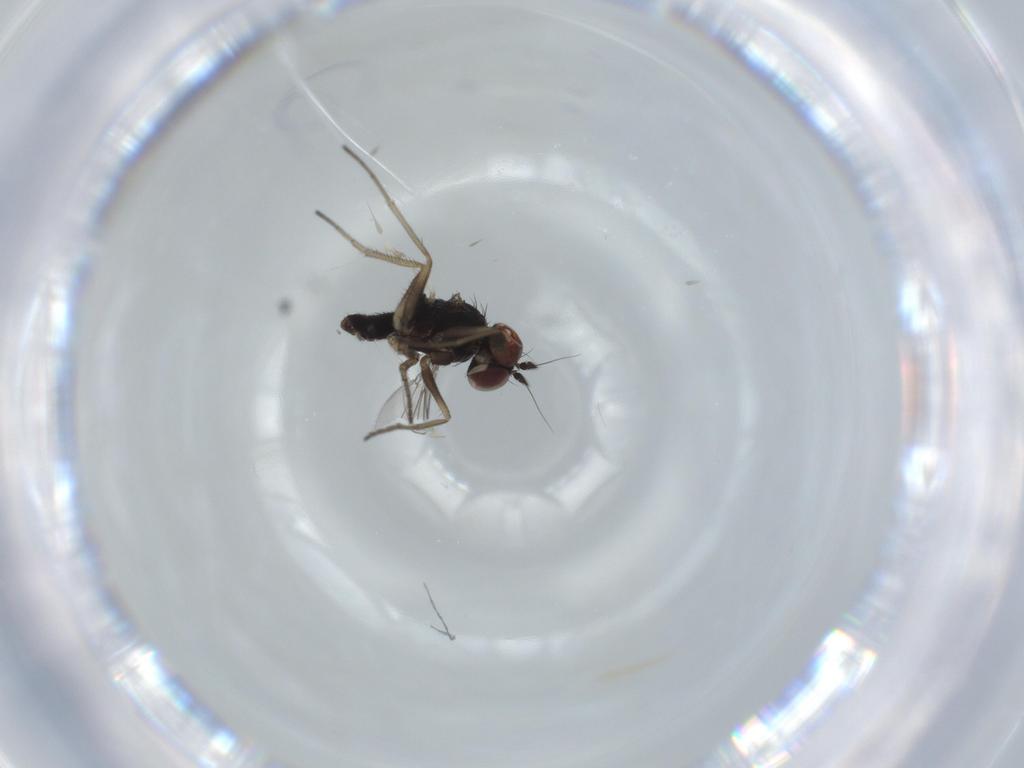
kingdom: Animalia
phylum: Arthropoda
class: Insecta
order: Diptera
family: Dolichopodidae
